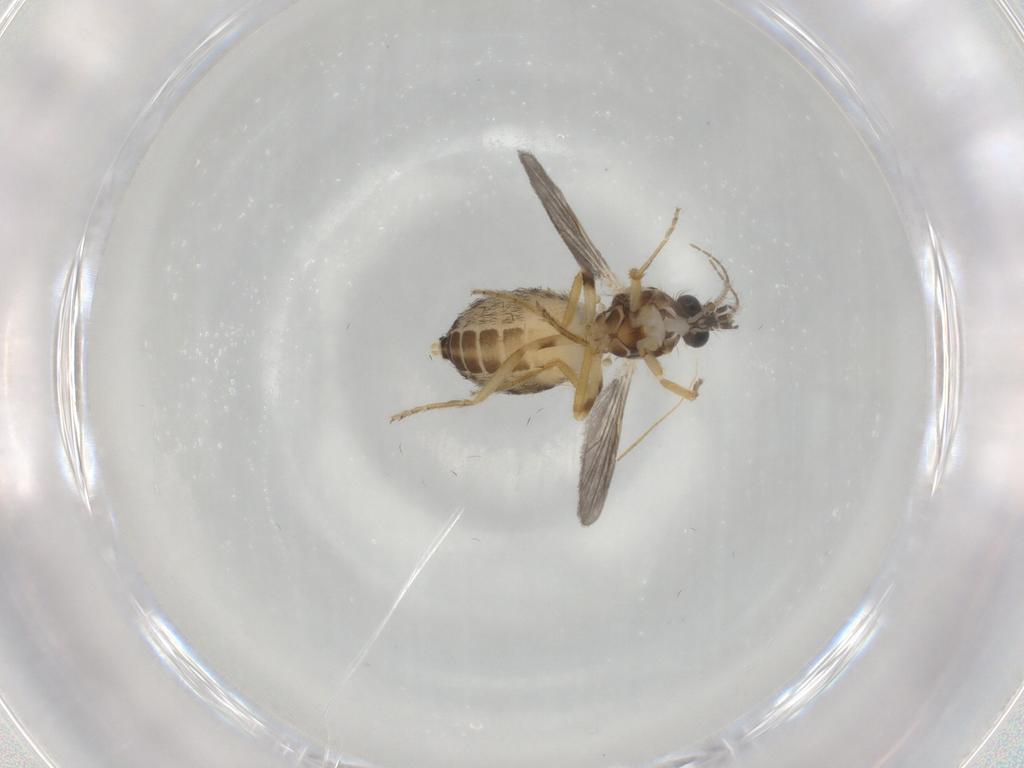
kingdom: Animalia
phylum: Arthropoda
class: Insecta
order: Diptera
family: Ceratopogonidae
